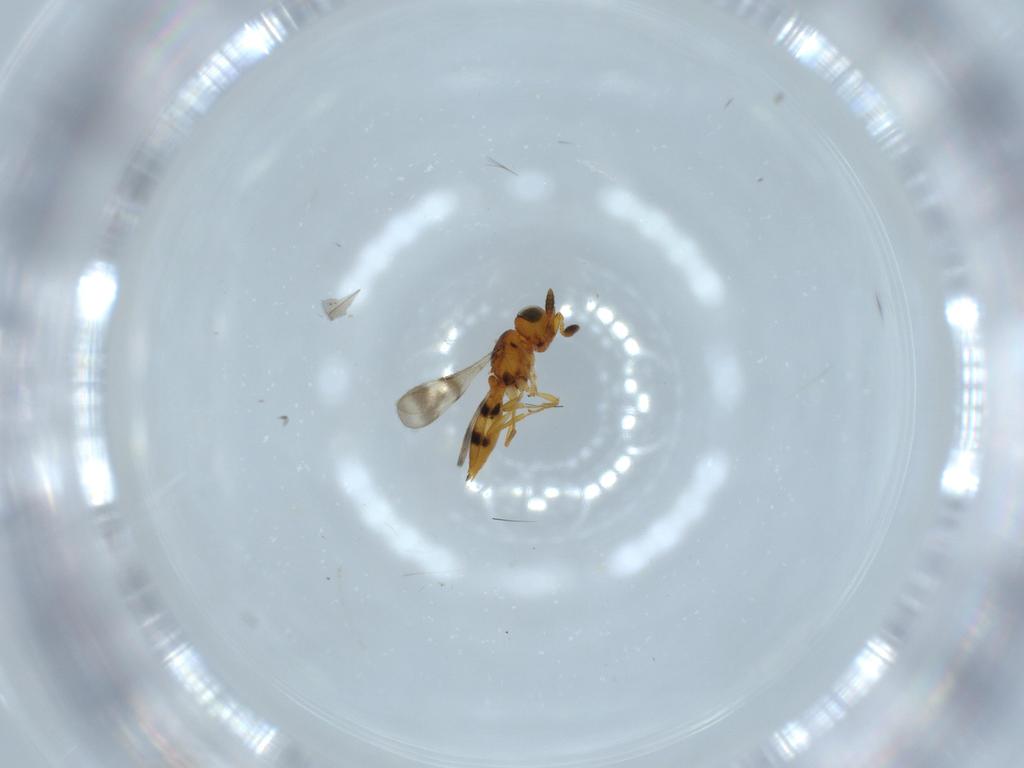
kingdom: Animalia
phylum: Arthropoda
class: Insecta
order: Hymenoptera
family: Scelionidae
